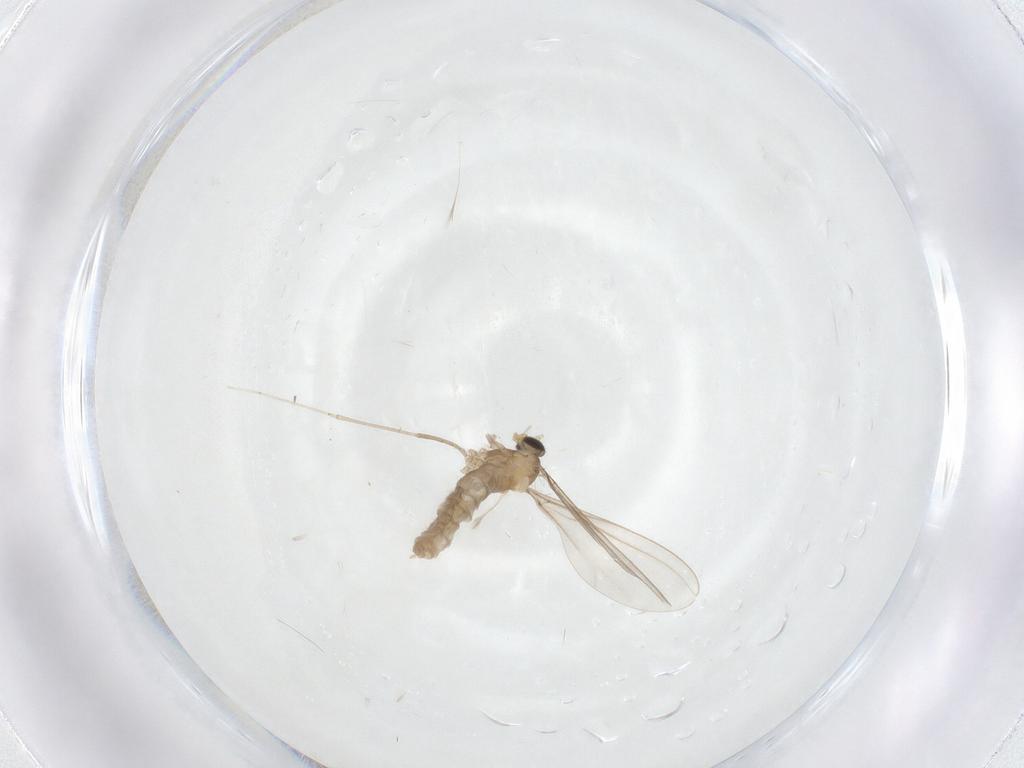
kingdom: Animalia
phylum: Arthropoda
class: Insecta
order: Diptera
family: Cecidomyiidae
